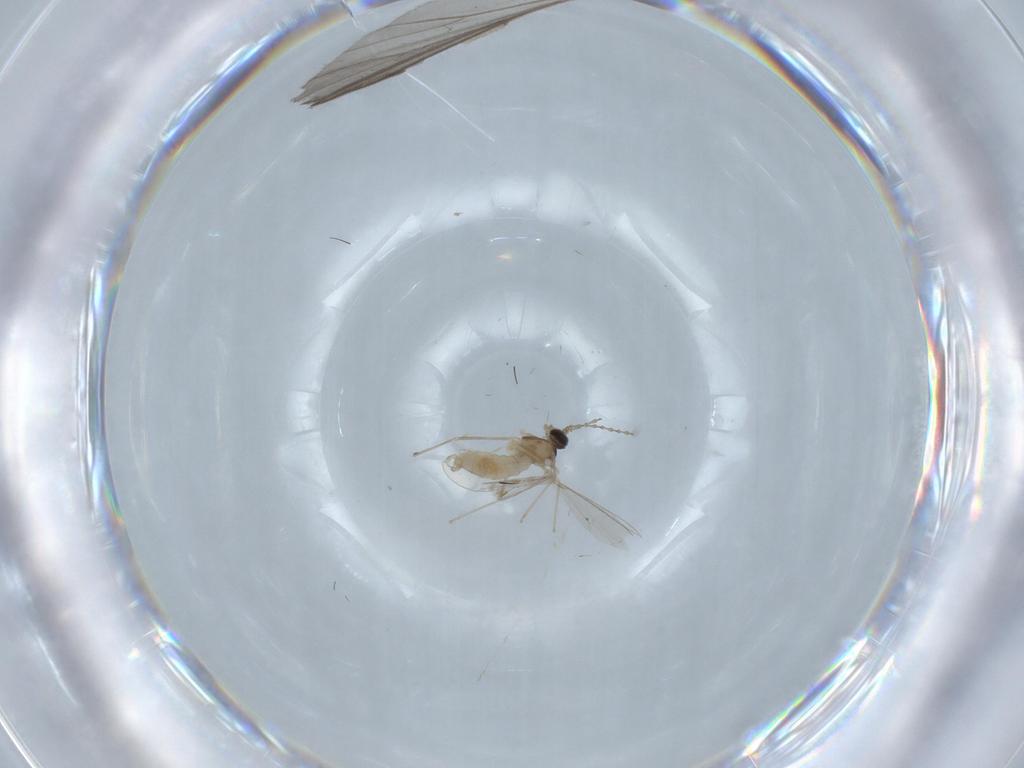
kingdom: Animalia
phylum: Arthropoda
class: Insecta
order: Diptera
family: Cecidomyiidae
